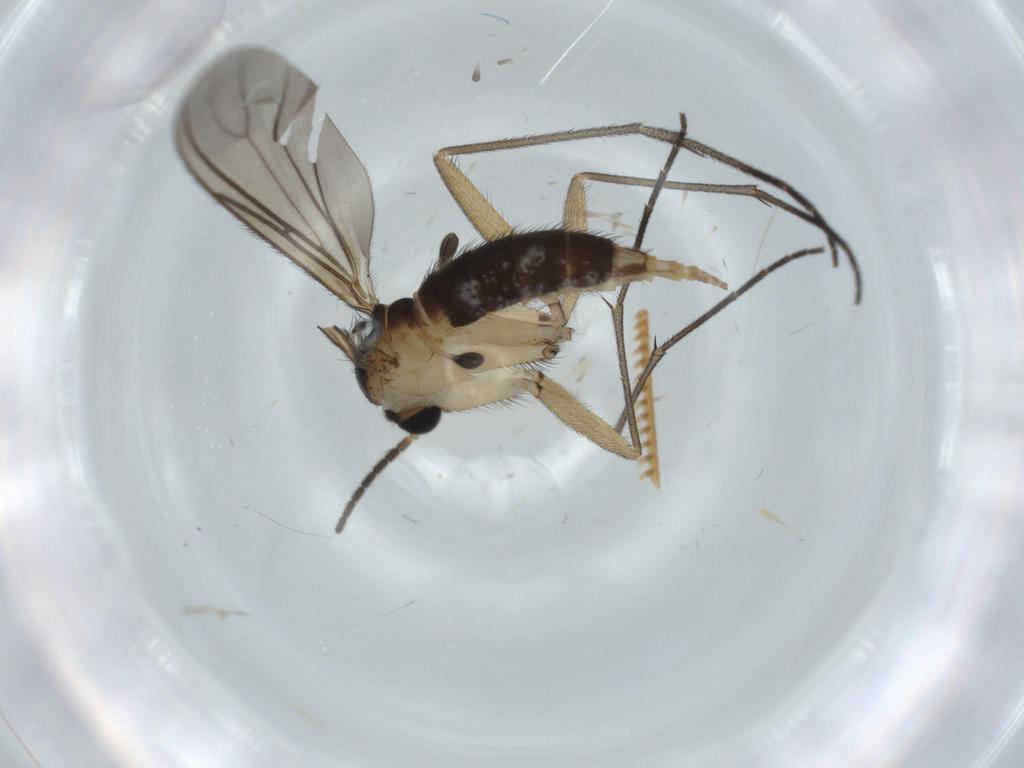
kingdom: Animalia
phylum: Arthropoda
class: Insecta
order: Diptera
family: Sciaridae
